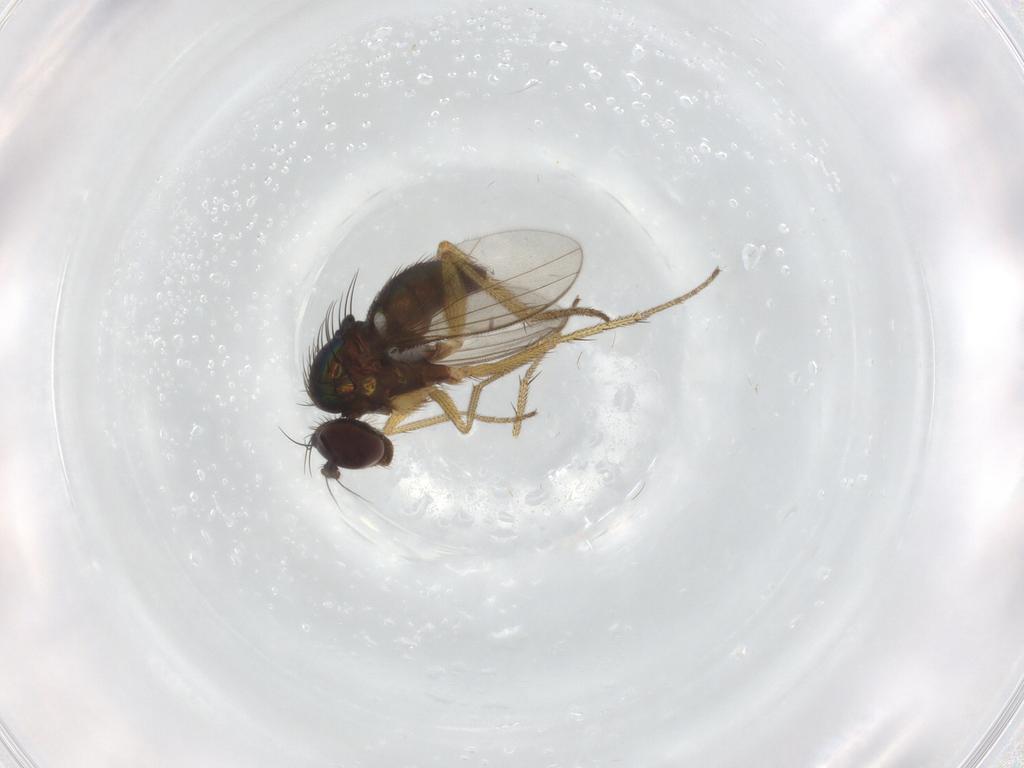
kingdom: Animalia
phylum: Arthropoda
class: Insecta
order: Diptera
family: Dolichopodidae
